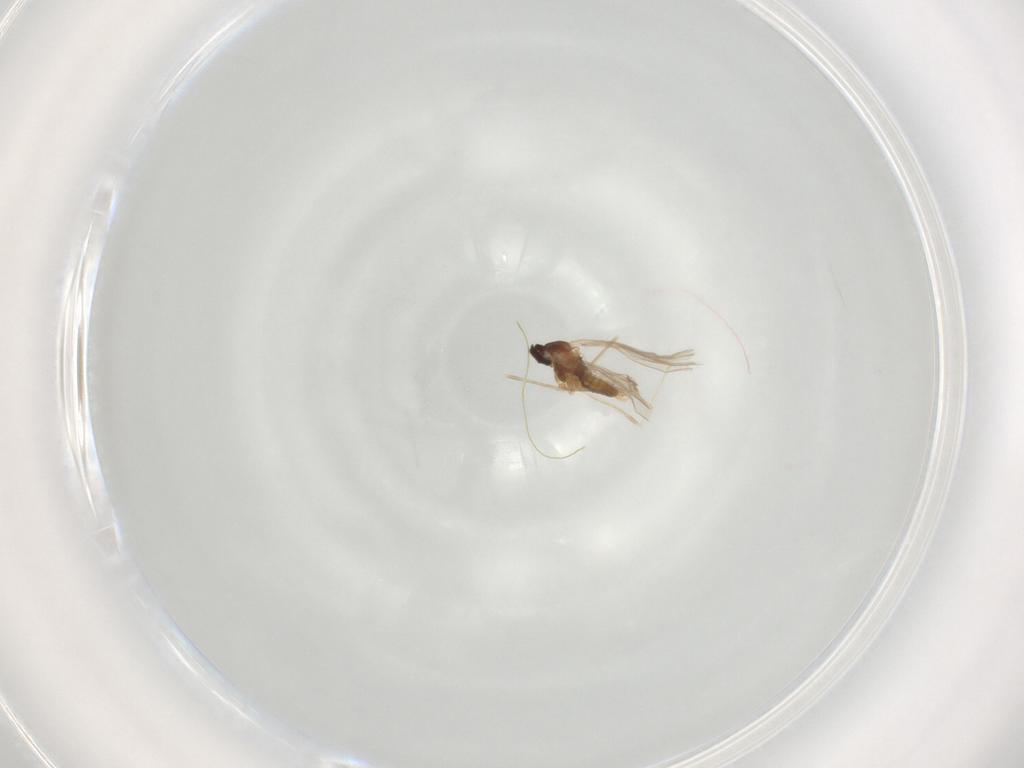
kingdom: Animalia
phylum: Arthropoda
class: Insecta
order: Diptera
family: Cecidomyiidae
